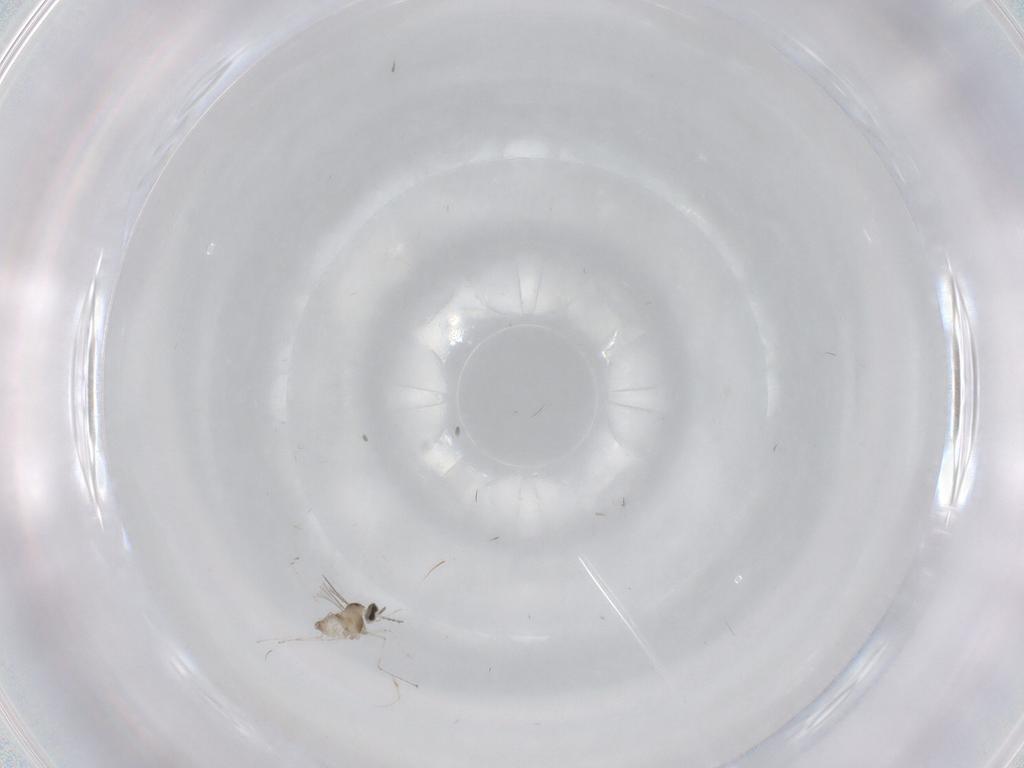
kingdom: Animalia
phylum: Arthropoda
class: Insecta
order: Diptera
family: Cecidomyiidae
